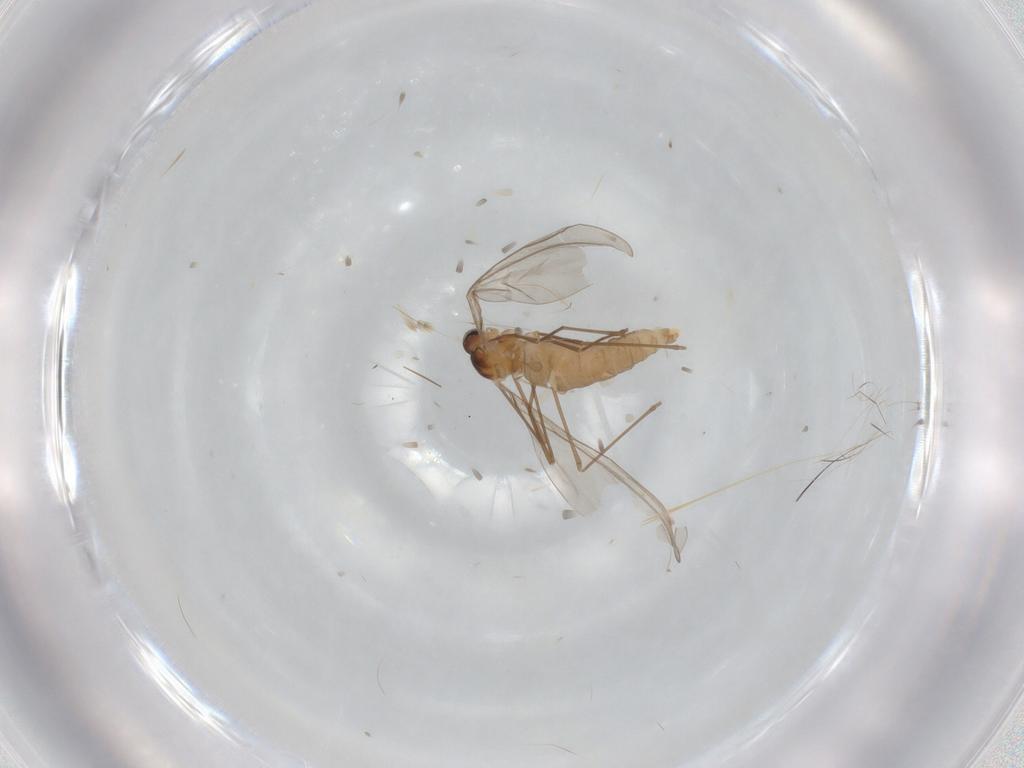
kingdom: Animalia
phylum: Arthropoda
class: Insecta
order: Diptera
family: Cecidomyiidae
